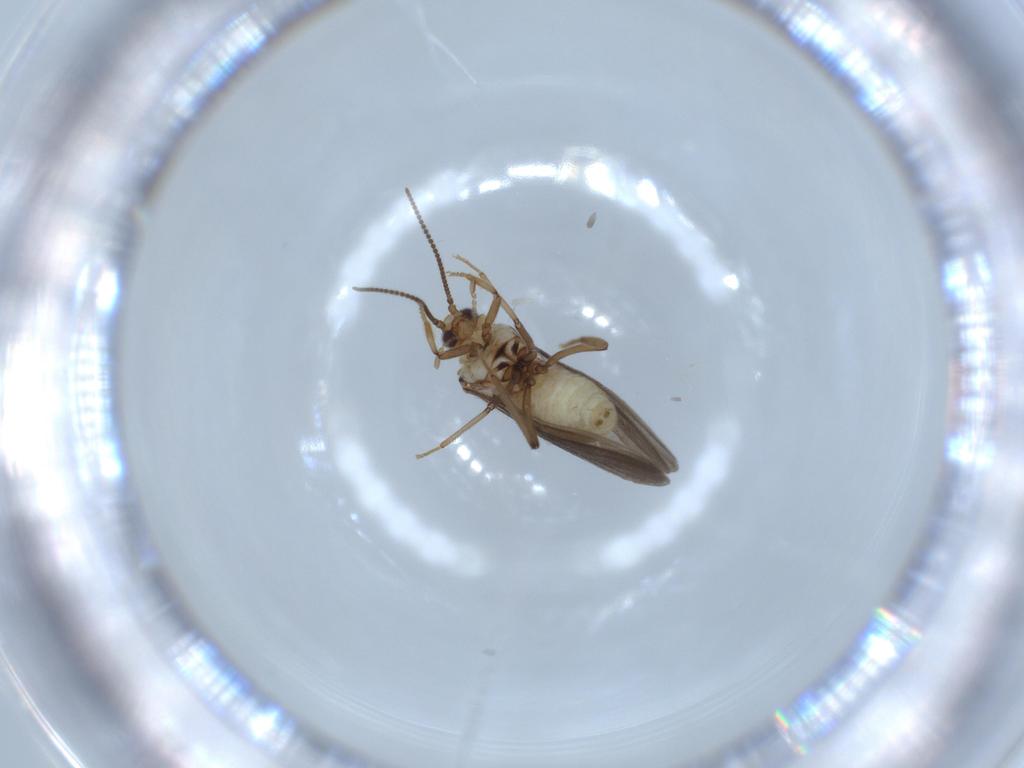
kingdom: Animalia
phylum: Arthropoda
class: Insecta
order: Neuroptera
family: Coniopterygidae
